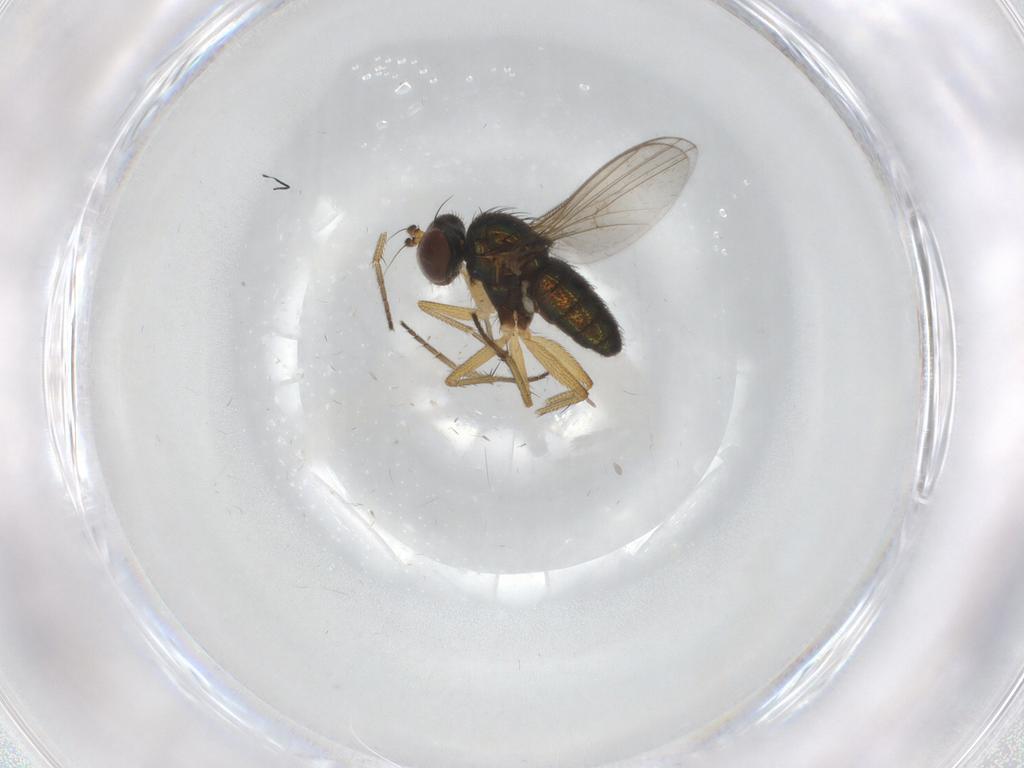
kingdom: Animalia
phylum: Arthropoda
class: Insecta
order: Diptera
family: Dolichopodidae
